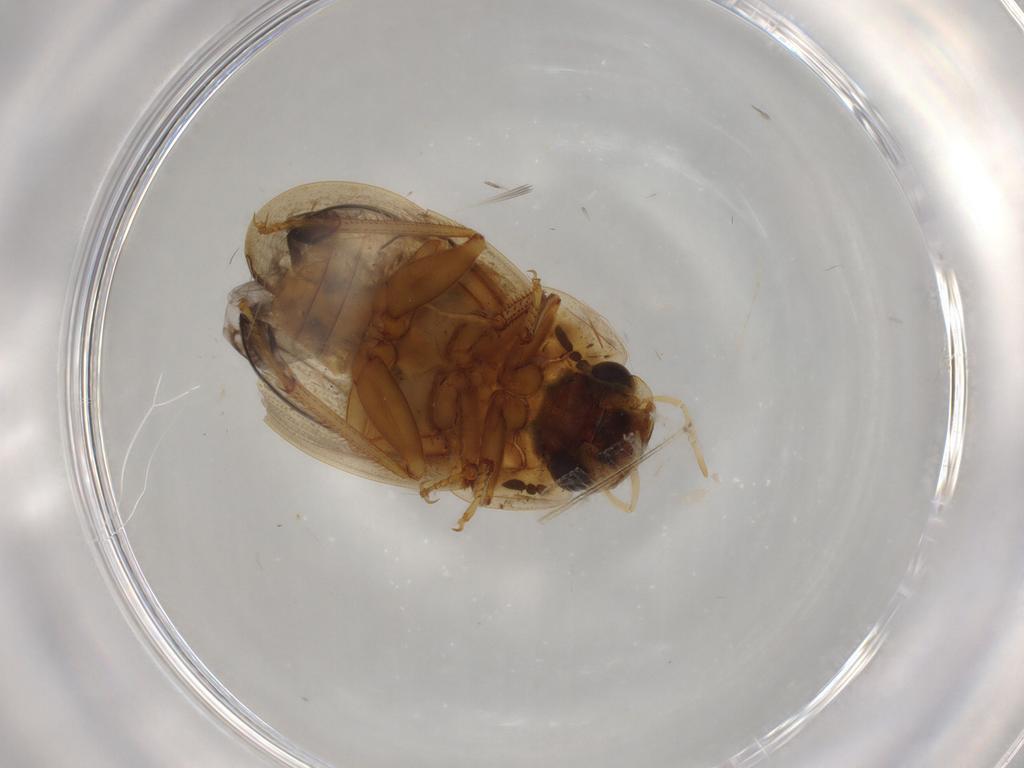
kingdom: Animalia
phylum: Arthropoda
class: Insecta
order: Coleoptera
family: Hydrophilidae
